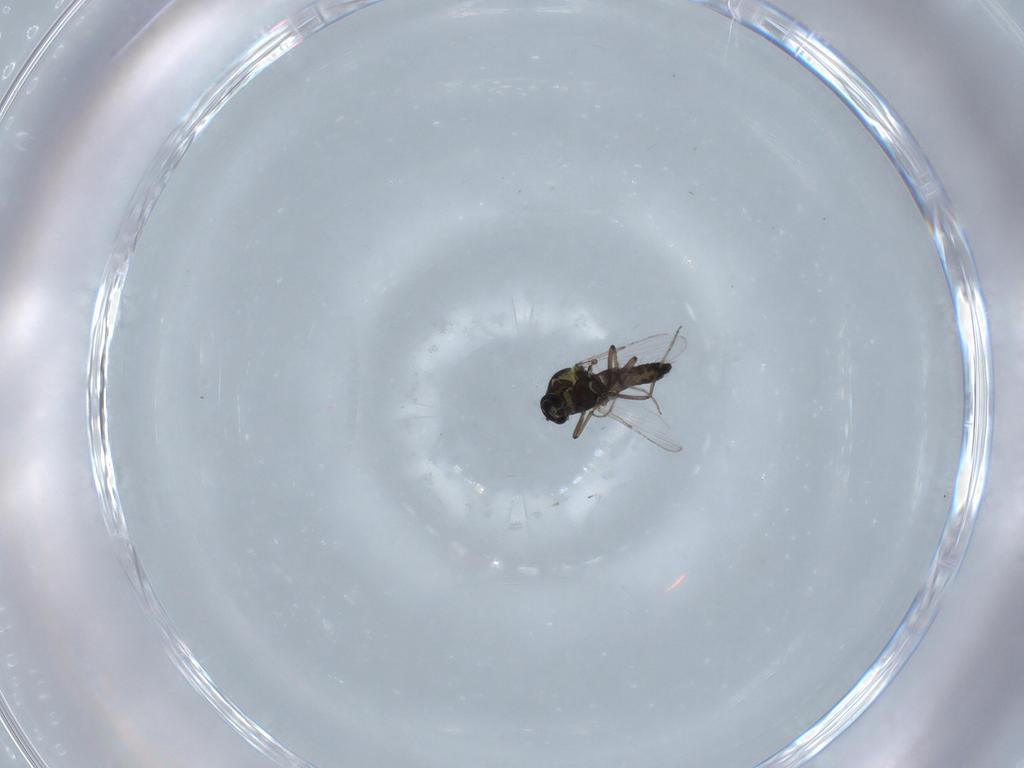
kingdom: Animalia
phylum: Arthropoda
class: Insecta
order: Diptera
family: Ceratopogonidae
